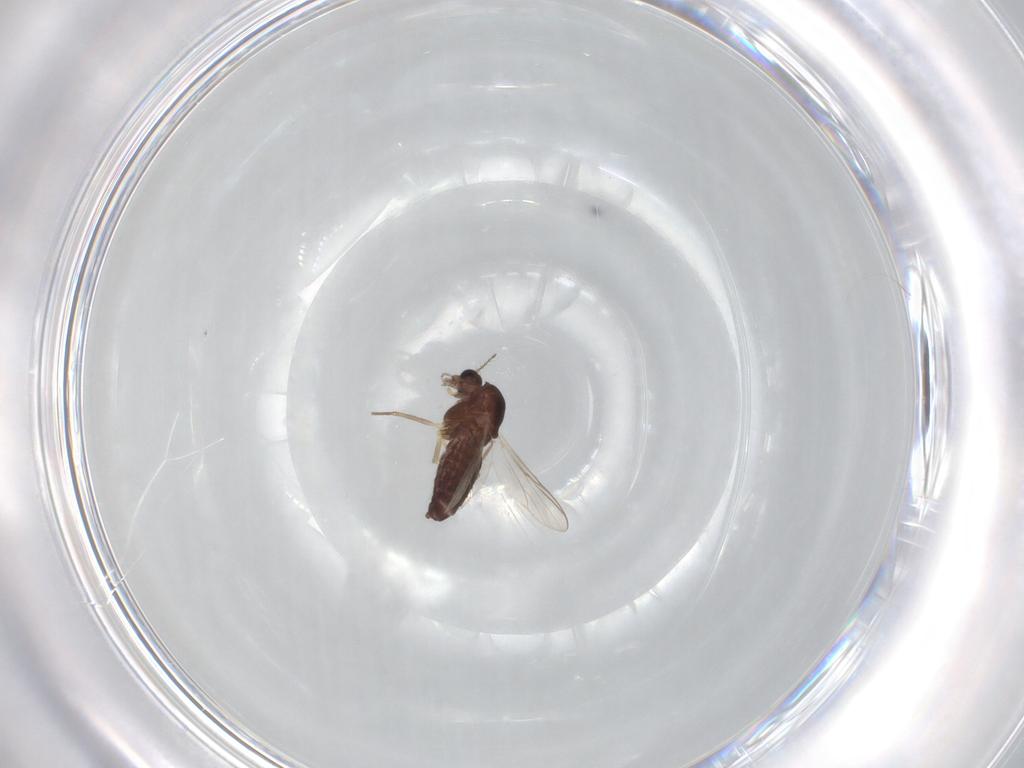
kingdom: Animalia
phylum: Arthropoda
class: Insecta
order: Diptera
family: Chironomidae
